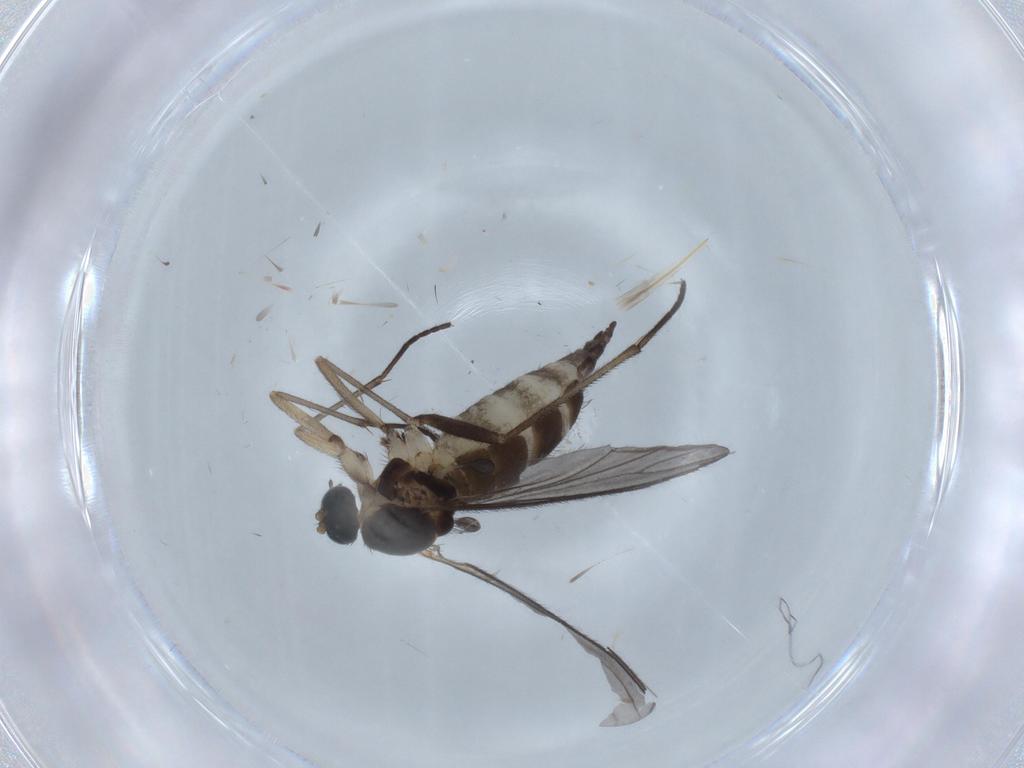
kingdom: Animalia
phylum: Arthropoda
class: Insecta
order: Diptera
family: Sciaridae
